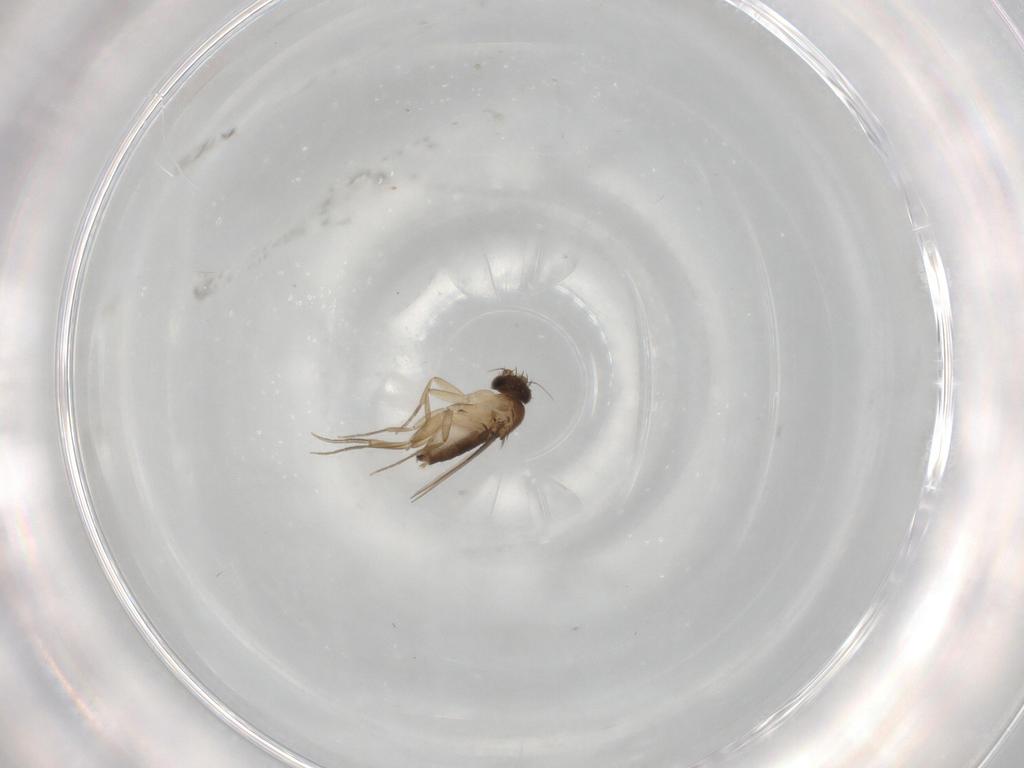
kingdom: Animalia
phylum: Arthropoda
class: Insecta
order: Diptera
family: Phoridae
